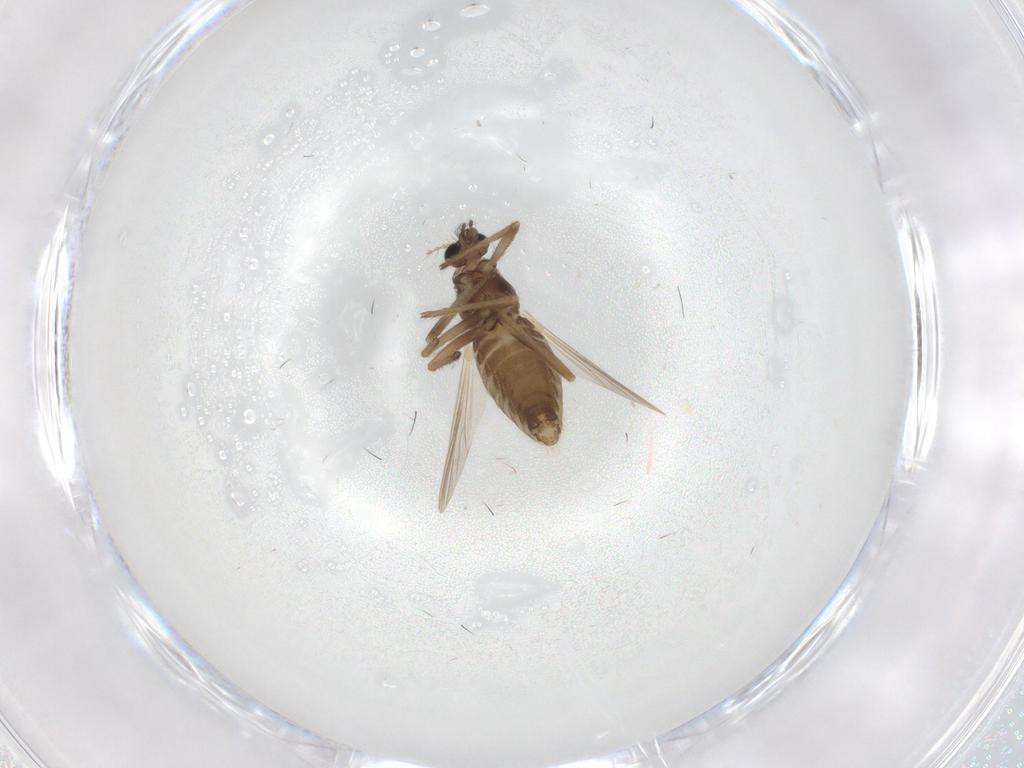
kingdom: Animalia
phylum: Arthropoda
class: Insecta
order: Diptera
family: Chironomidae
